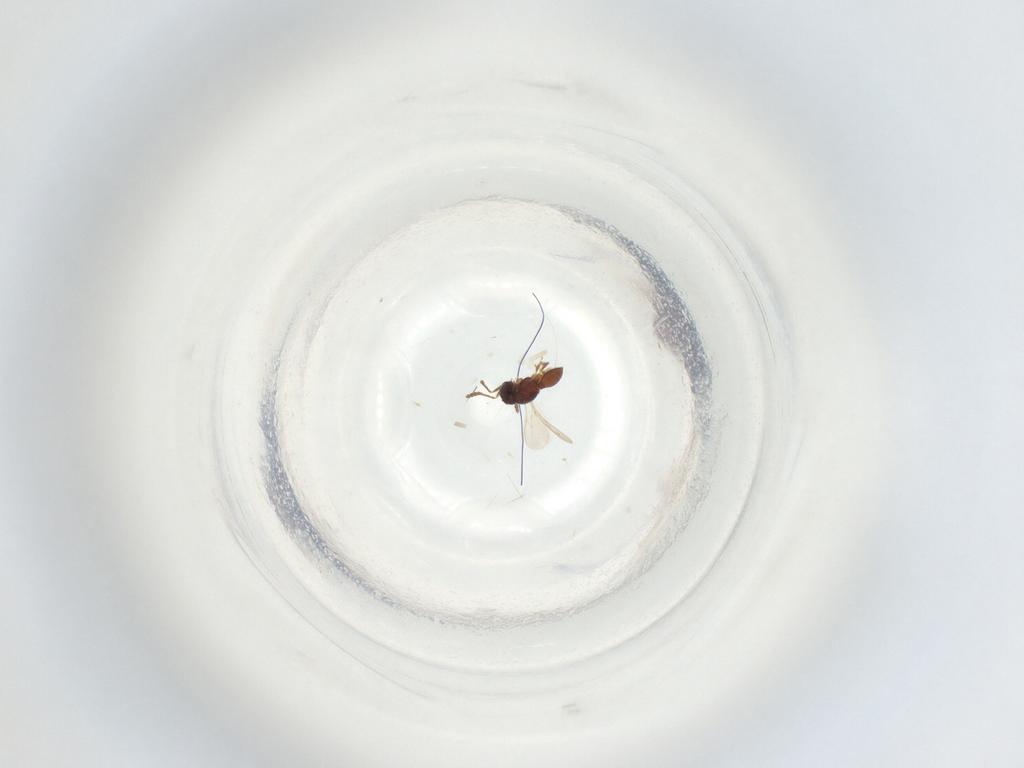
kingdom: Animalia
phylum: Arthropoda
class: Insecta
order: Hymenoptera
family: Scelionidae
